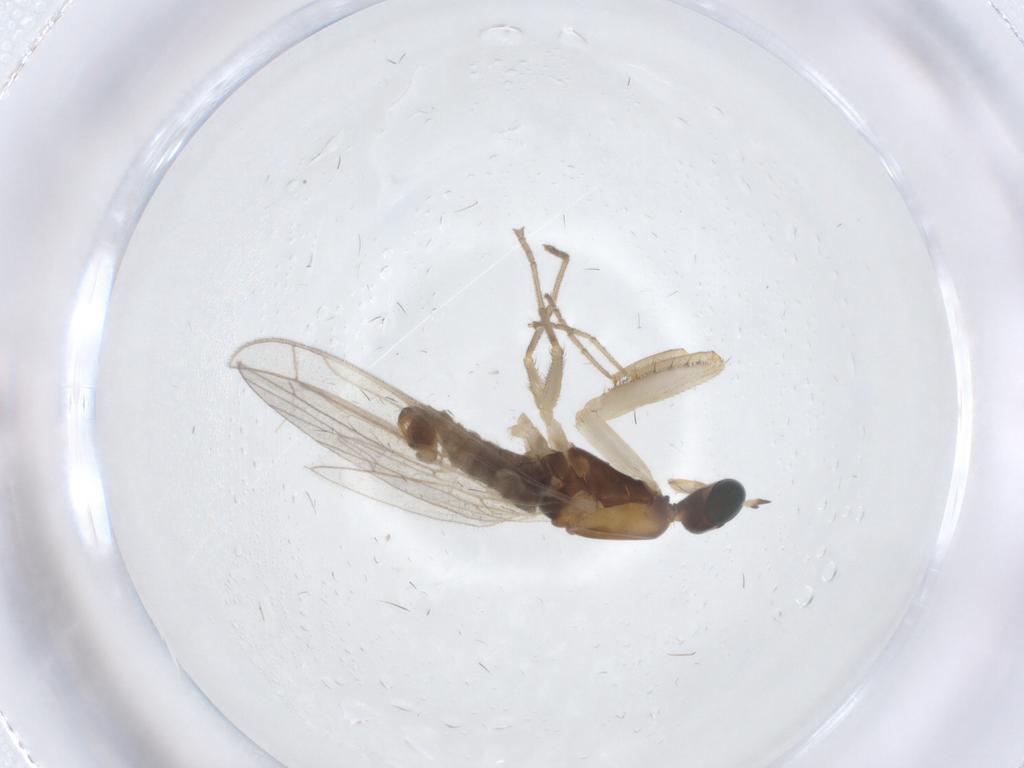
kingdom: Animalia
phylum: Arthropoda
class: Insecta
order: Diptera
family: Empididae
